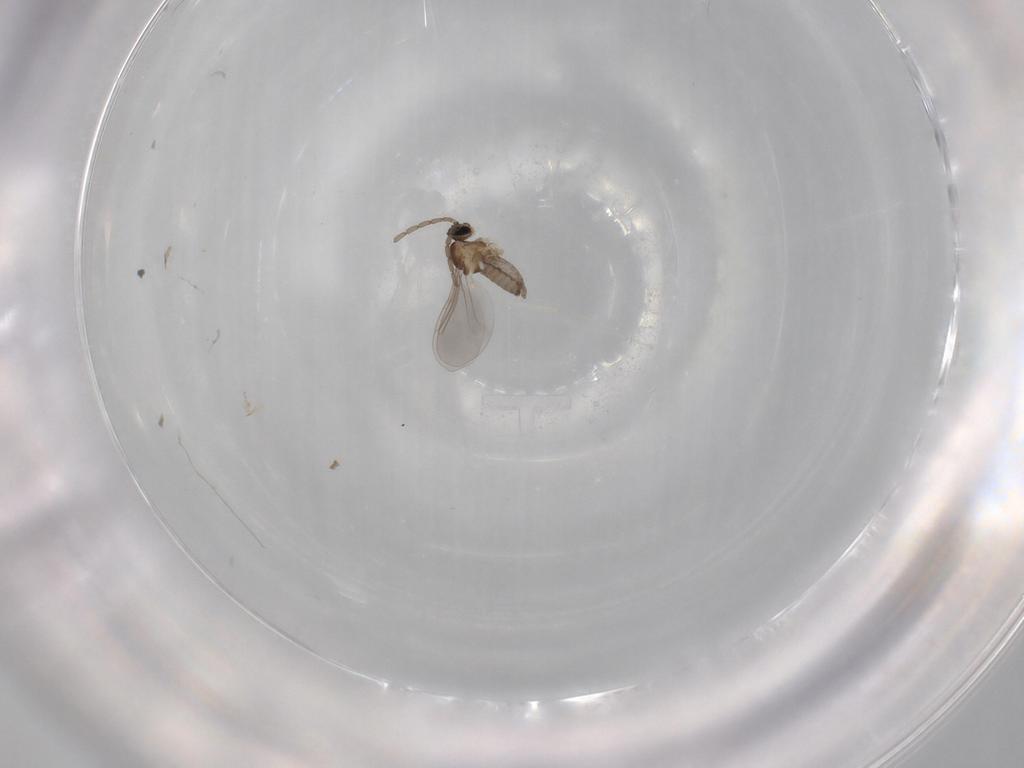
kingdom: Animalia
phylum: Arthropoda
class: Insecta
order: Diptera
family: Cecidomyiidae
